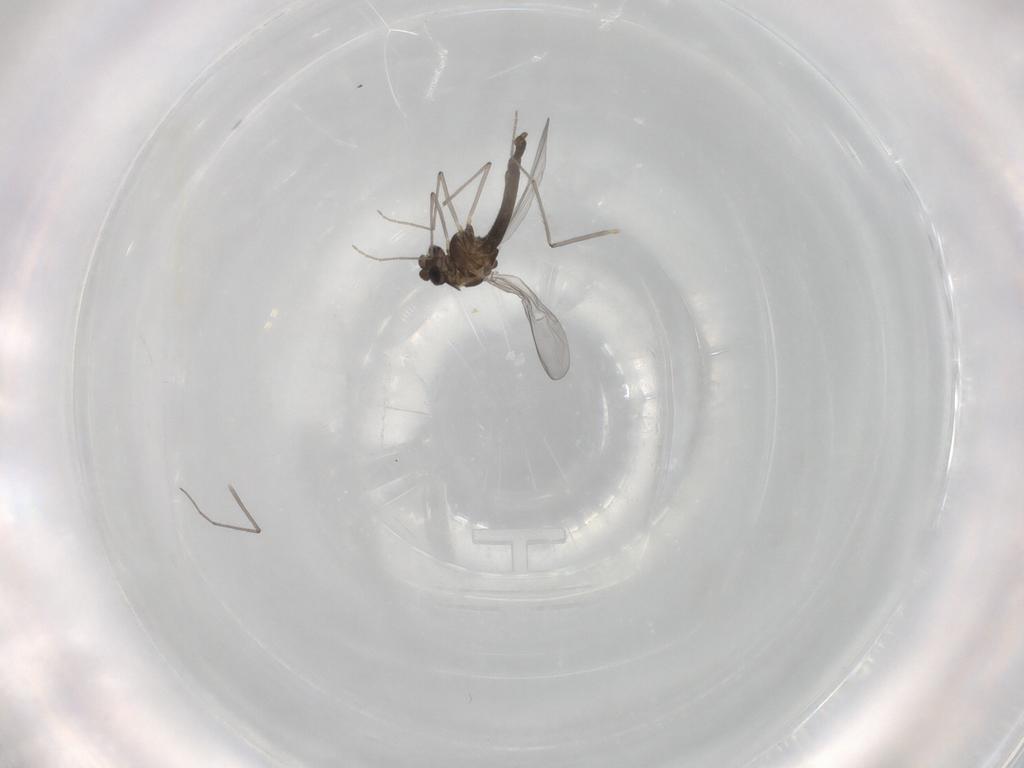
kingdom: Animalia
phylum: Arthropoda
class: Insecta
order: Diptera
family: Chironomidae
